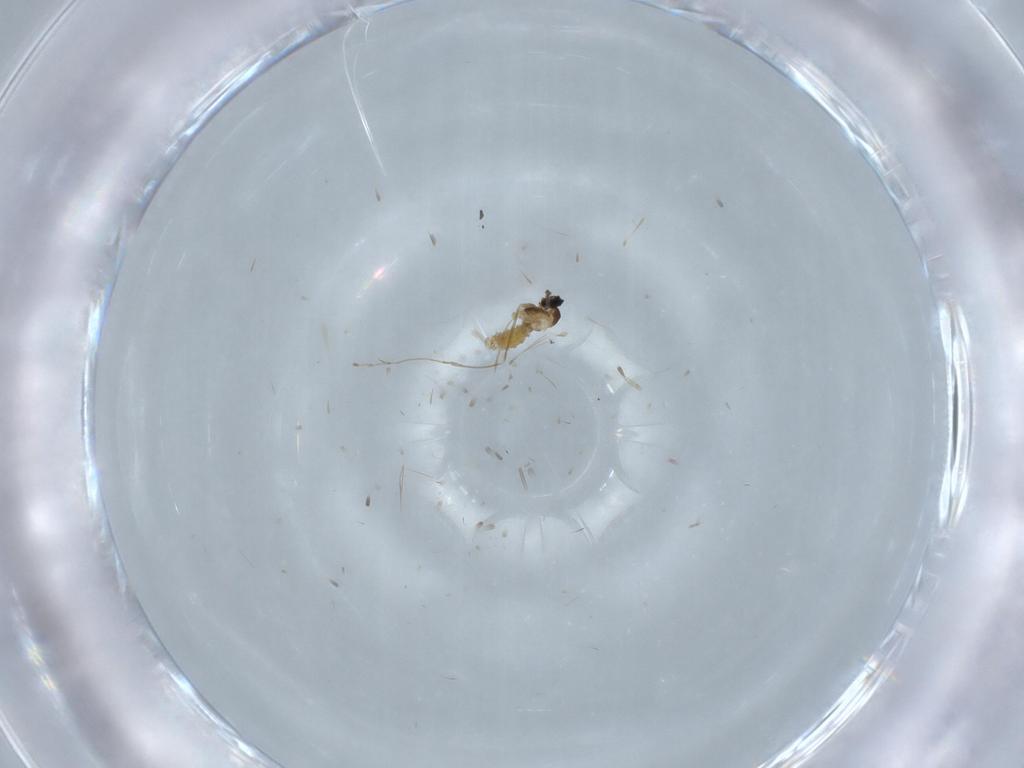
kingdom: Animalia
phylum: Arthropoda
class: Insecta
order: Diptera
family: Cecidomyiidae
